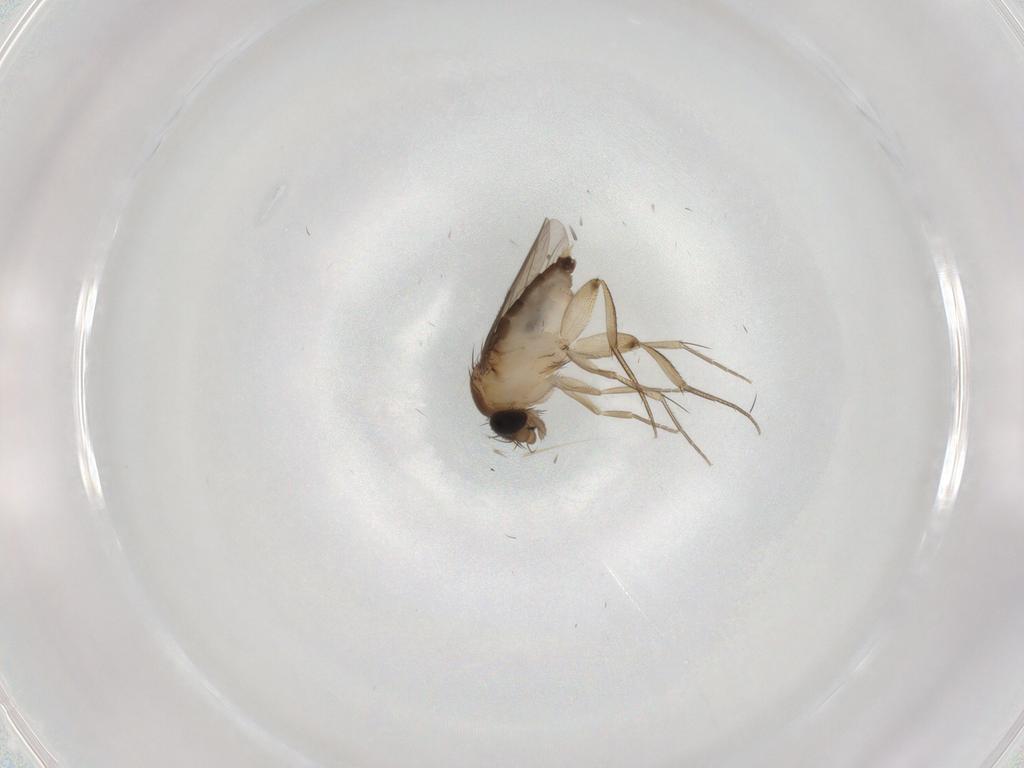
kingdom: Animalia
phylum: Arthropoda
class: Insecta
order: Diptera
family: Phoridae
